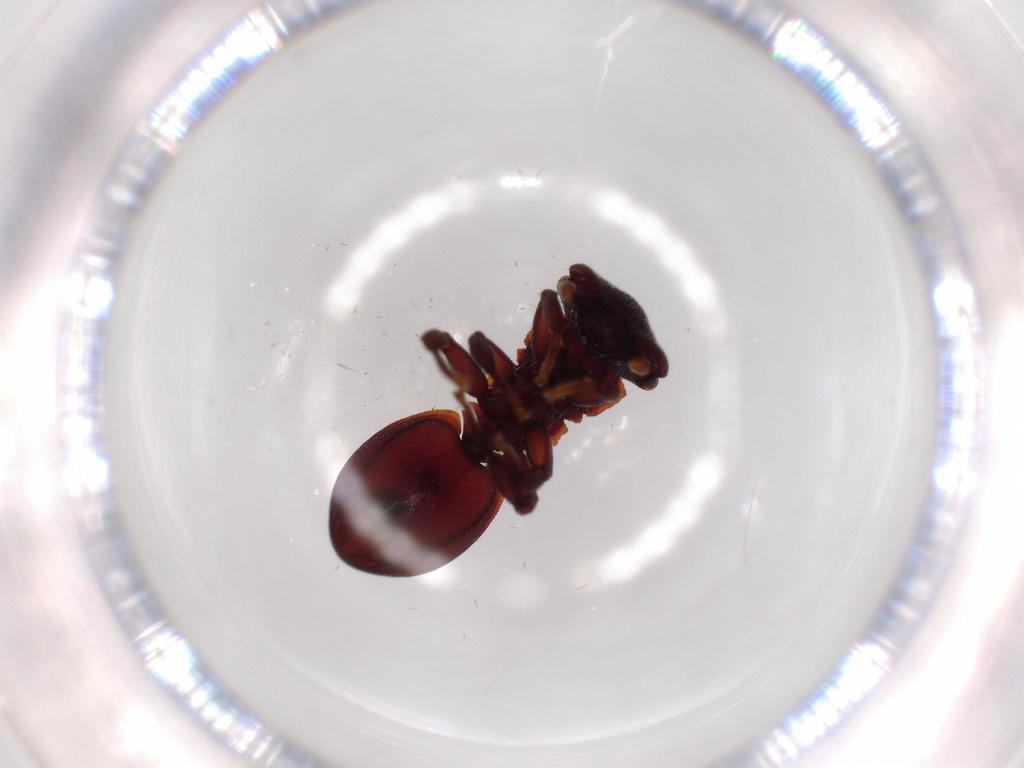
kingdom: Animalia
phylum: Arthropoda
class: Insecta
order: Hymenoptera
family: Formicidae
